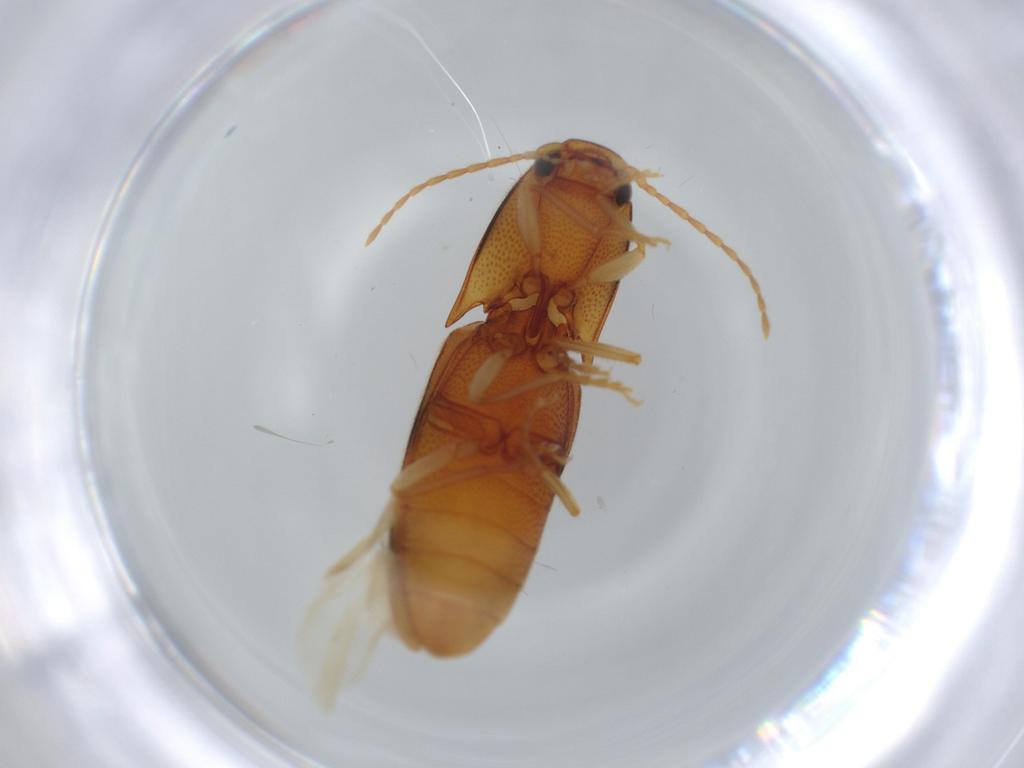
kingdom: Animalia
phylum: Arthropoda
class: Insecta
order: Coleoptera
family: Elateridae
